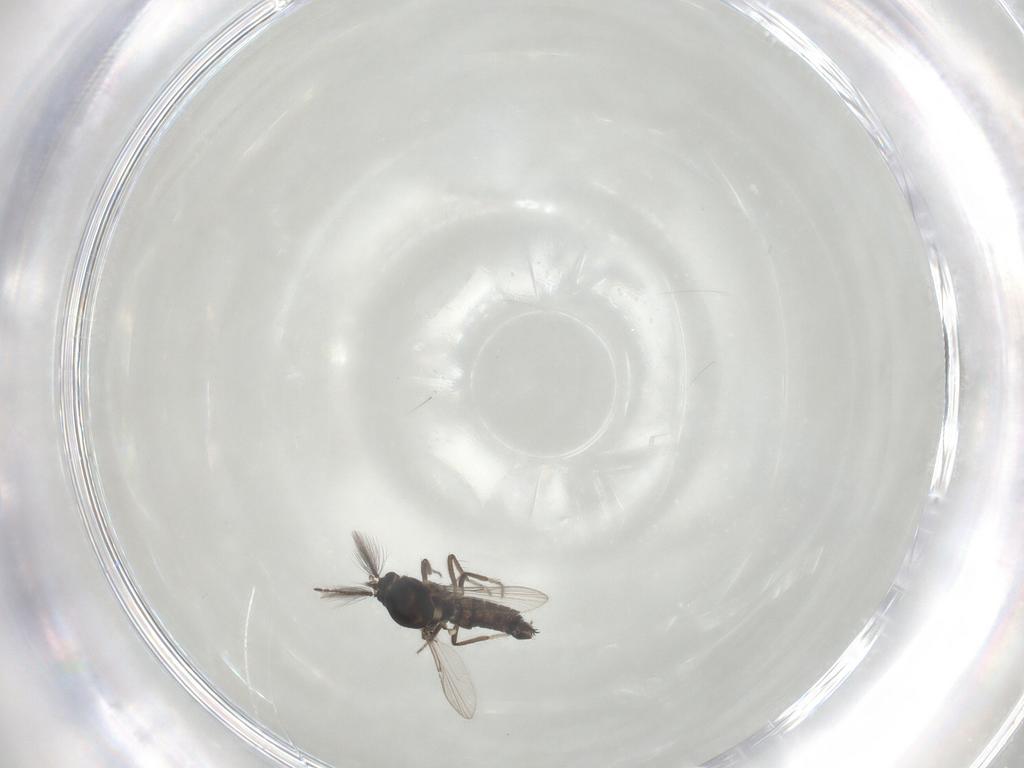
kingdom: Animalia
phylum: Arthropoda
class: Insecta
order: Diptera
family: Ceratopogonidae
